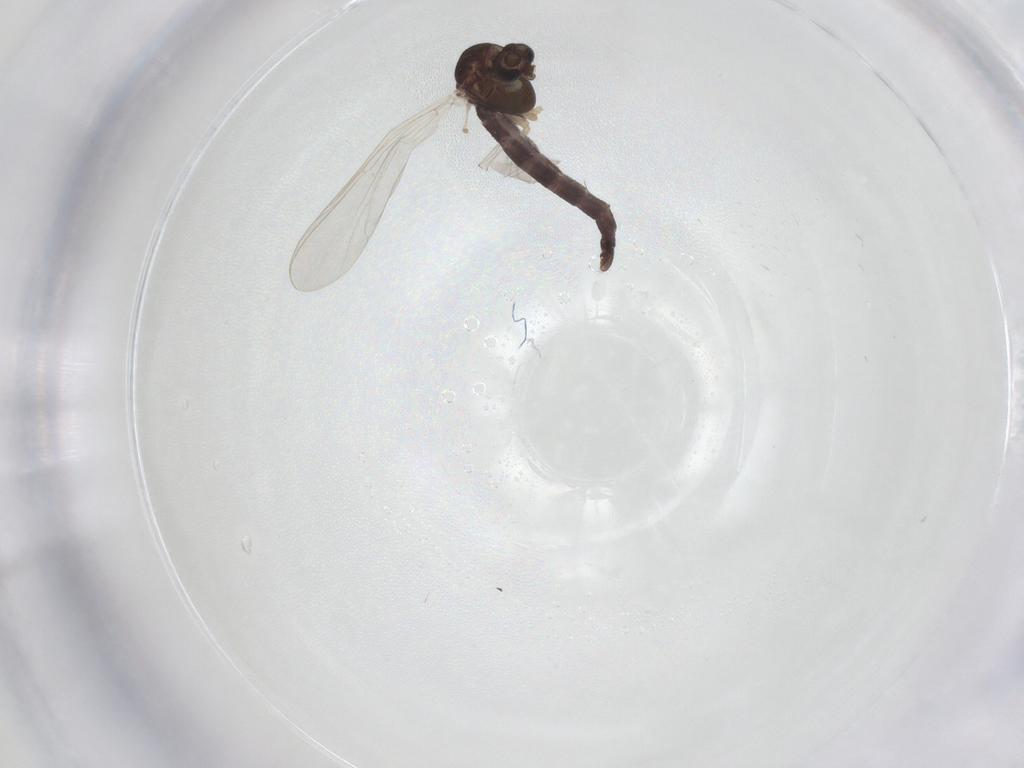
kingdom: Animalia
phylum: Arthropoda
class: Insecta
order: Diptera
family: Chironomidae
